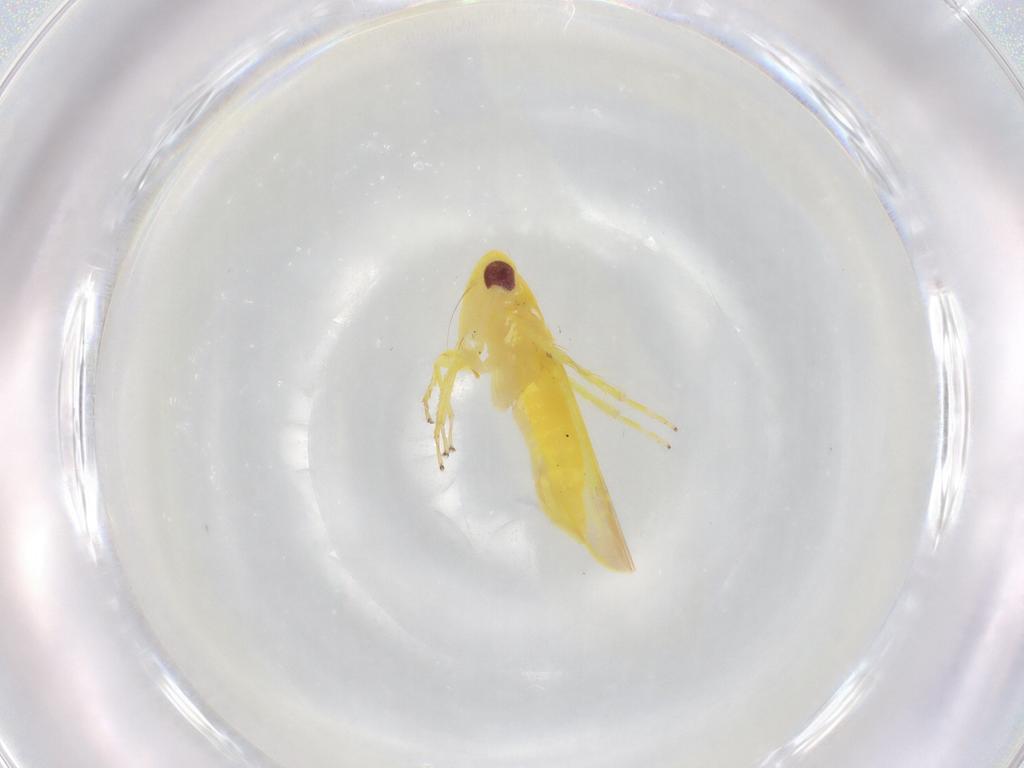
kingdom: Animalia
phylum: Arthropoda
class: Insecta
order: Hemiptera
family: Cicadellidae
